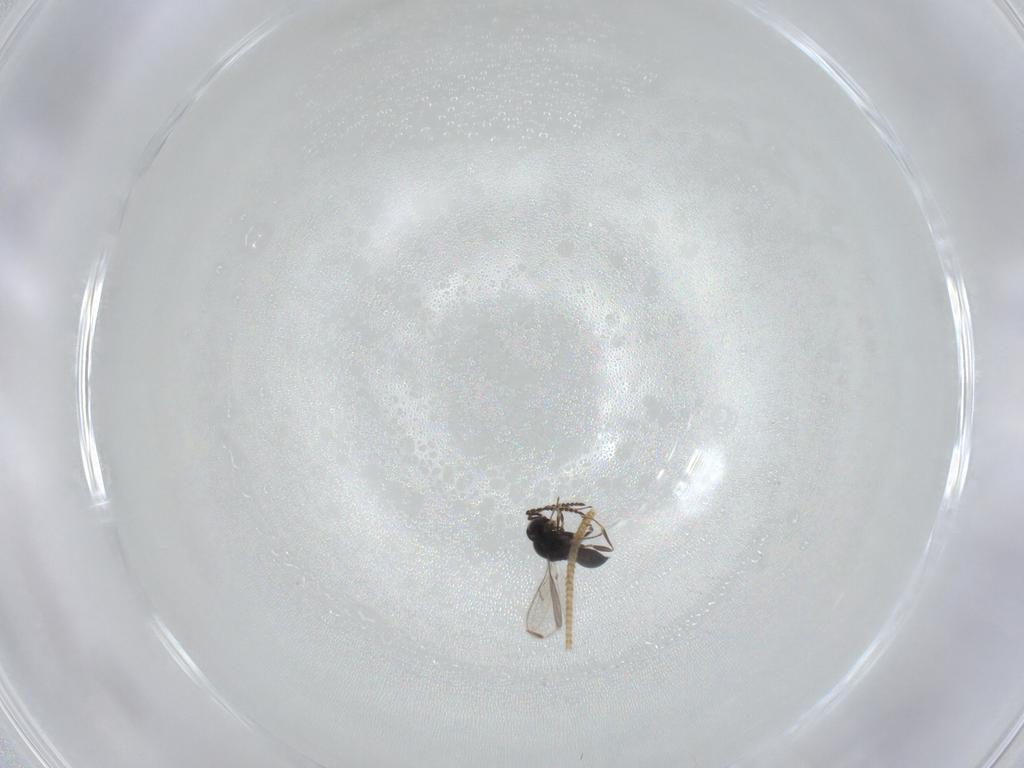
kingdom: Animalia
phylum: Arthropoda
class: Insecta
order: Hymenoptera
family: Scelionidae
